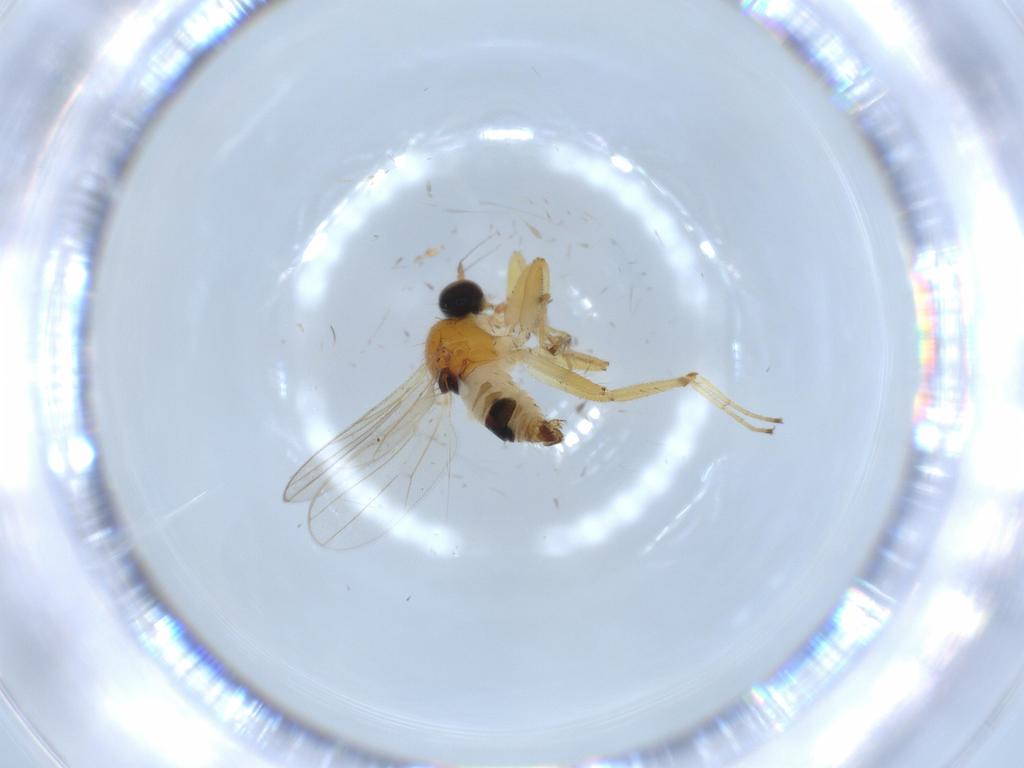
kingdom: Animalia
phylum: Arthropoda
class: Insecta
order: Diptera
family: Hybotidae
